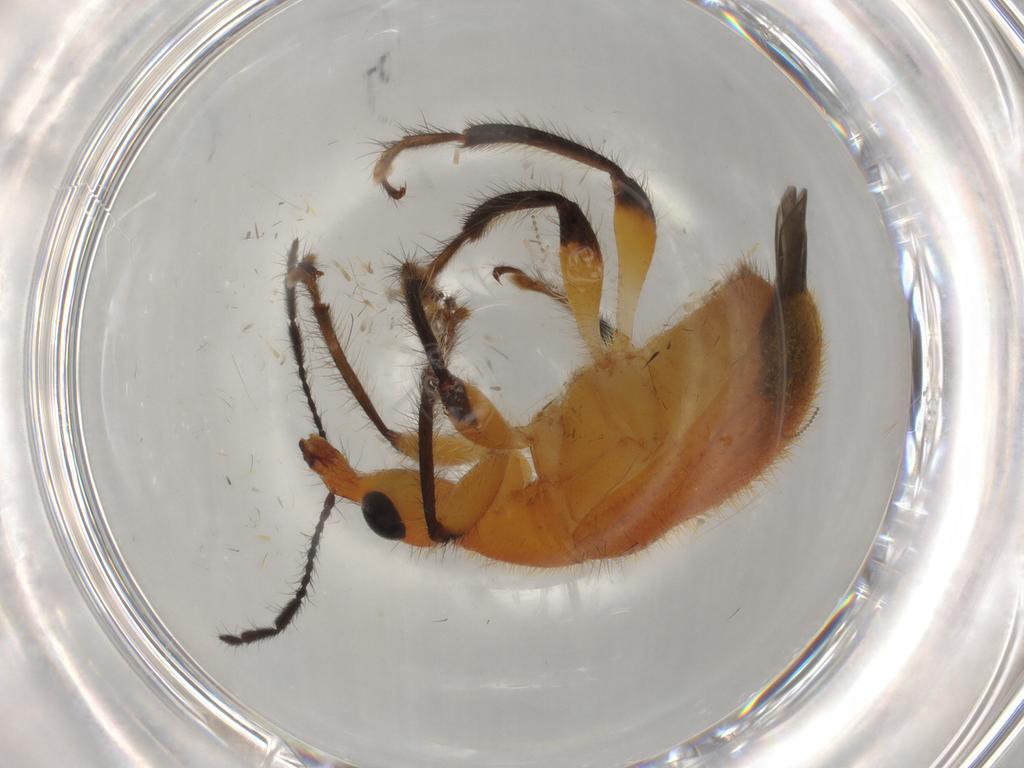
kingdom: Animalia
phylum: Arthropoda
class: Insecta
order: Coleoptera
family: Attelabidae
